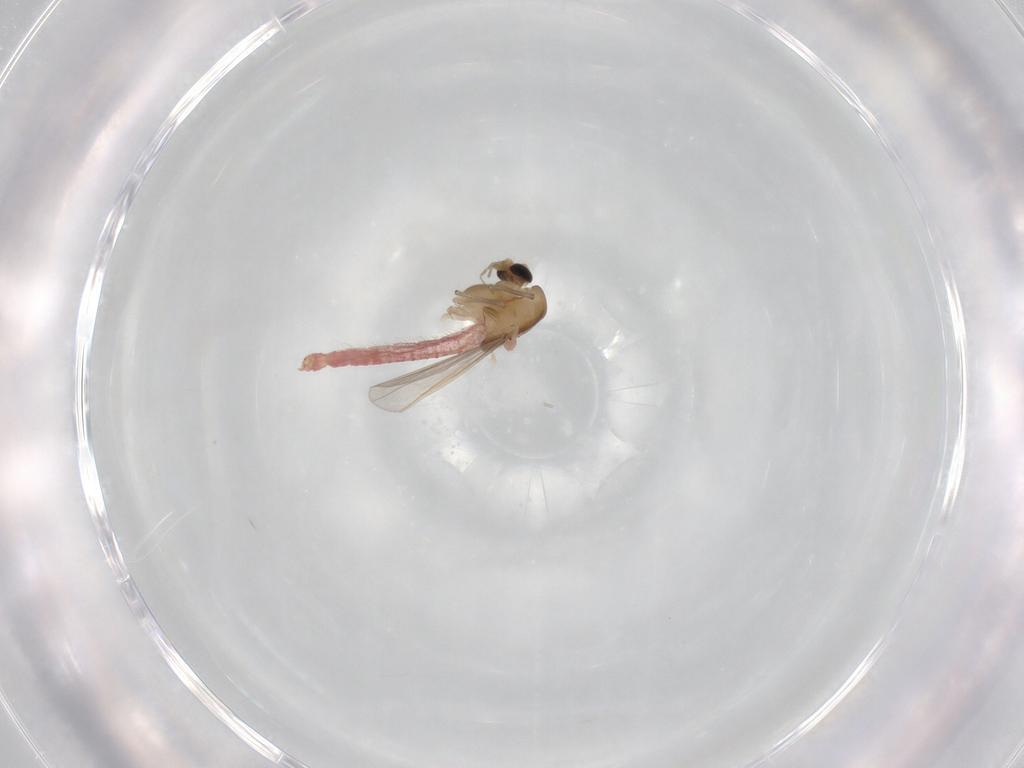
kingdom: Animalia
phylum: Arthropoda
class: Insecta
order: Diptera
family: Chironomidae
